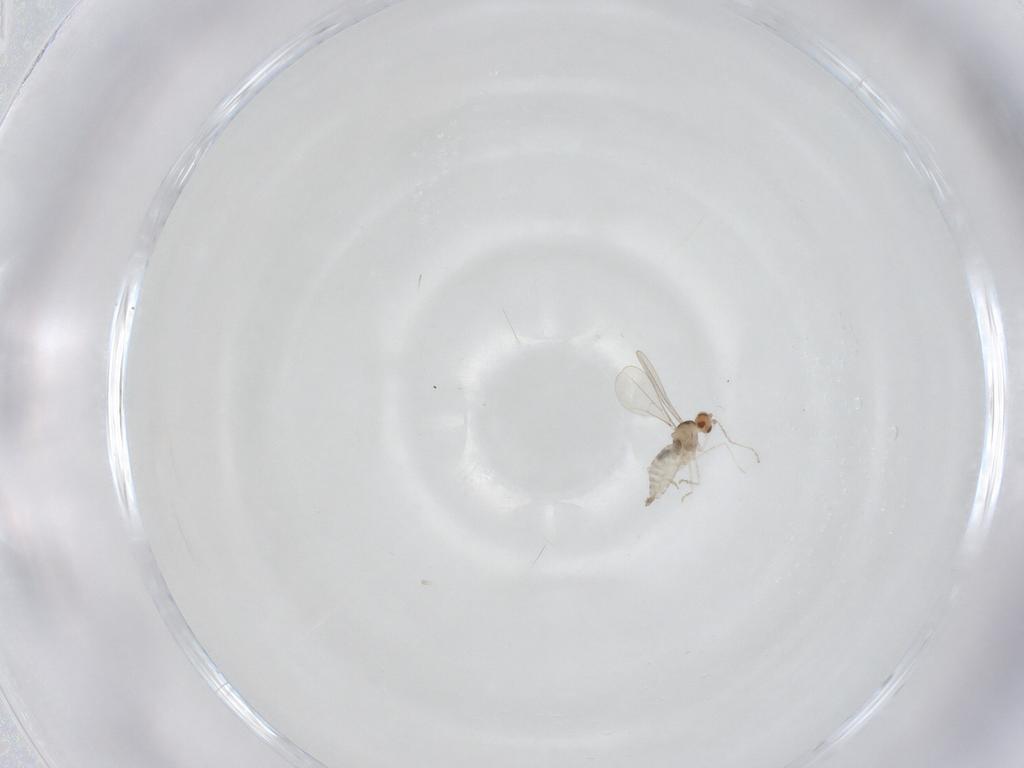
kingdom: Animalia
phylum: Arthropoda
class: Insecta
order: Diptera
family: Cecidomyiidae
